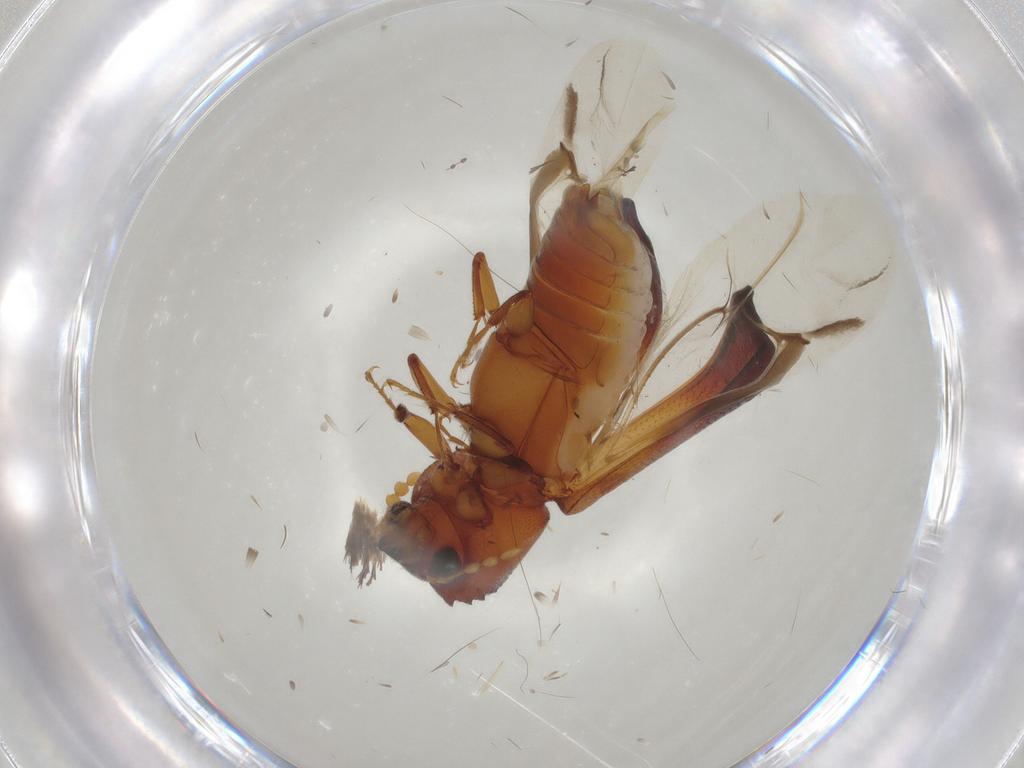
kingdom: Animalia
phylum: Arthropoda
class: Insecta
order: Coleoptera
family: Bostrichidae
